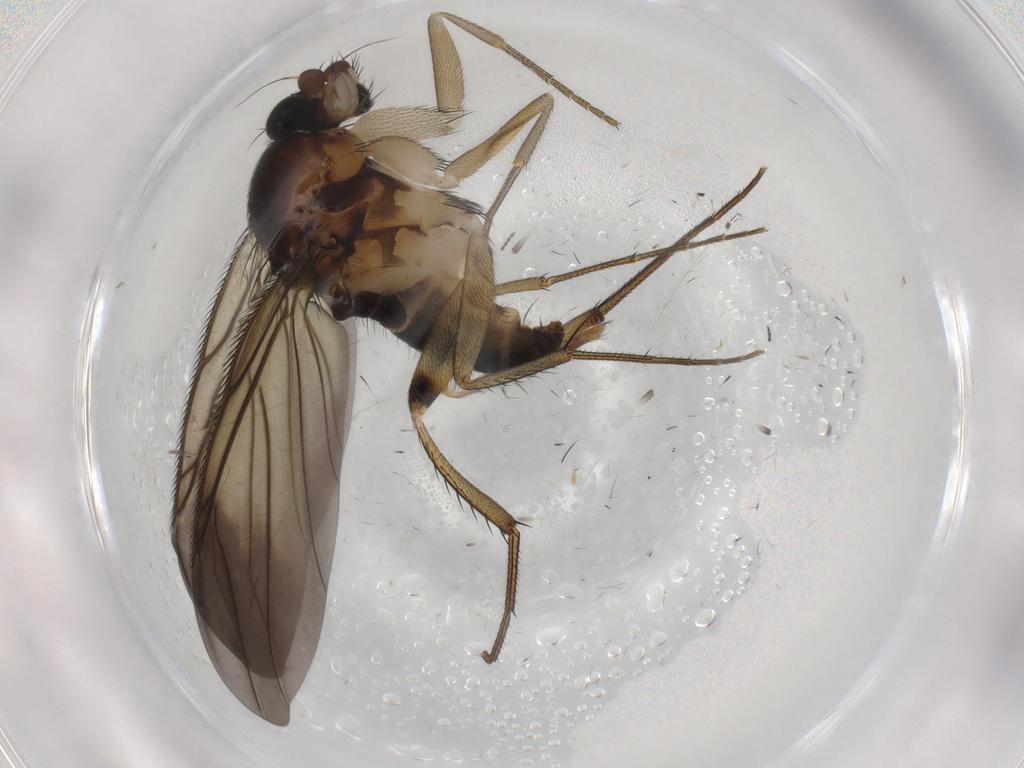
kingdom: Animalia
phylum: Arthropoda
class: Insecta
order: Diptera
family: Phoridae
